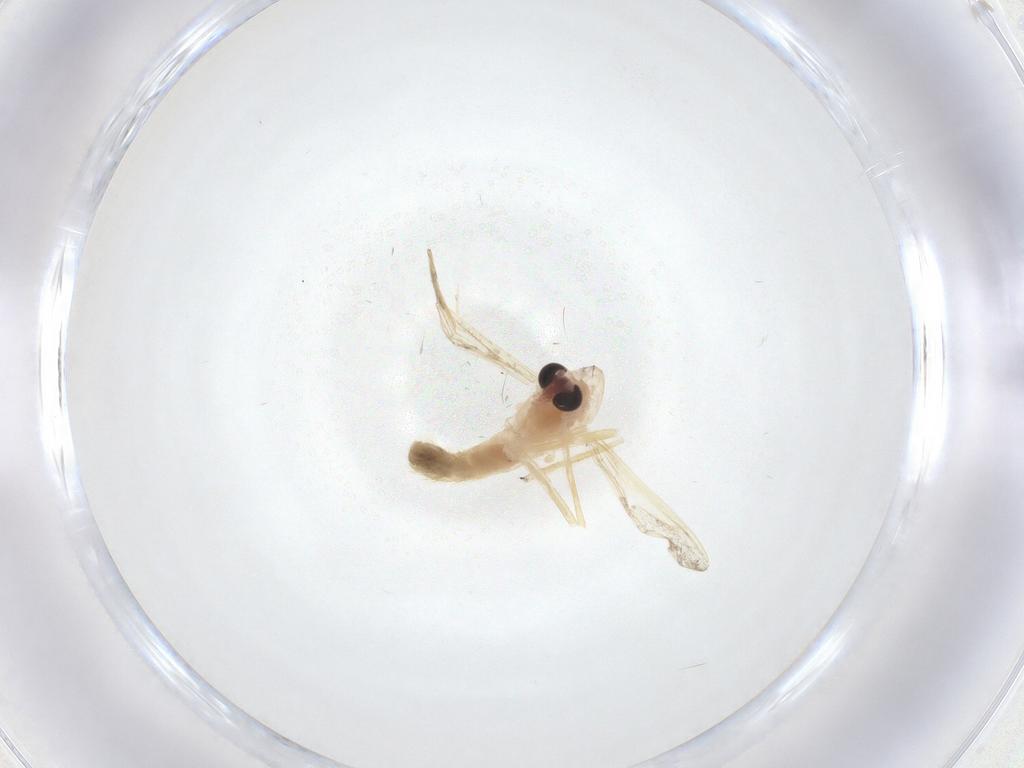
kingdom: Animalia
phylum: Arthropoda
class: Insecta
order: Diptera
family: Chironomidae
